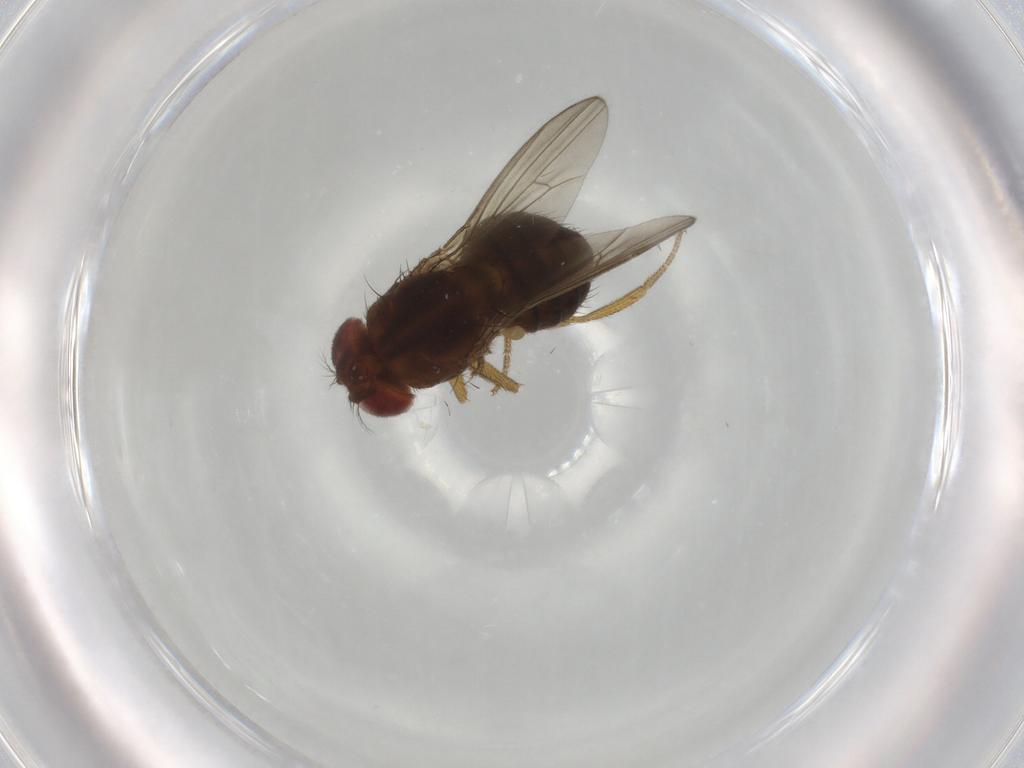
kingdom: Animalia
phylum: Arthropoda
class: Insecta
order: Diptera
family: Drosophilidae
